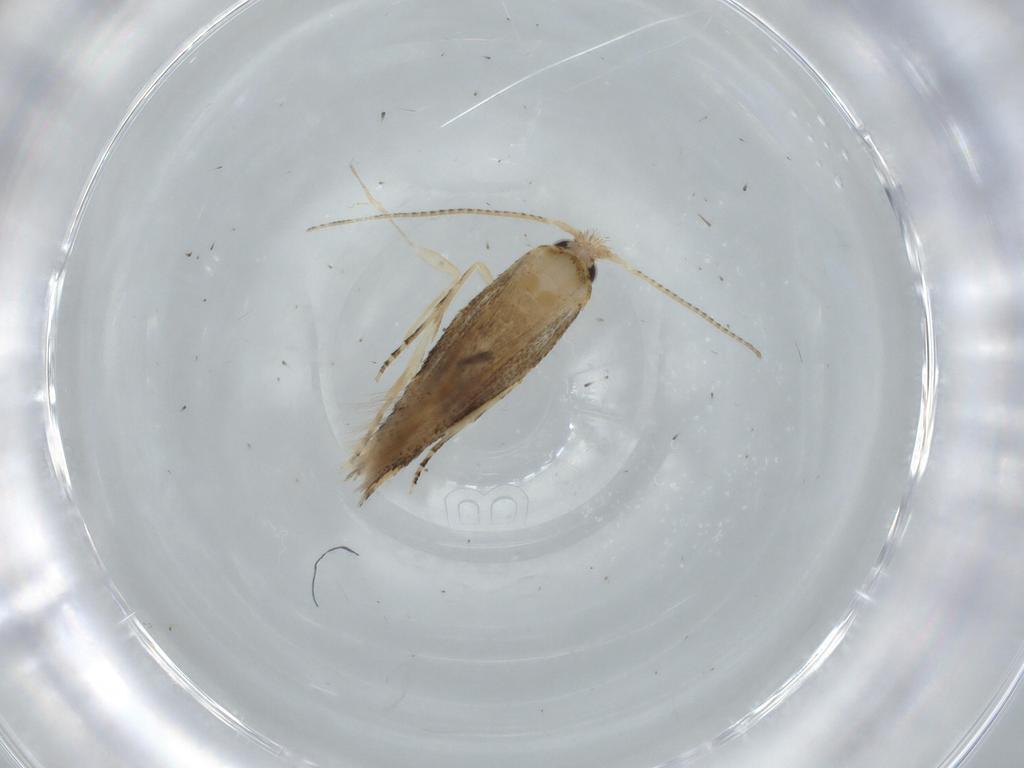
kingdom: Animalia
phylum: Arthropoda
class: Insecta
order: Lepidoptera
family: Bucculatricidae
